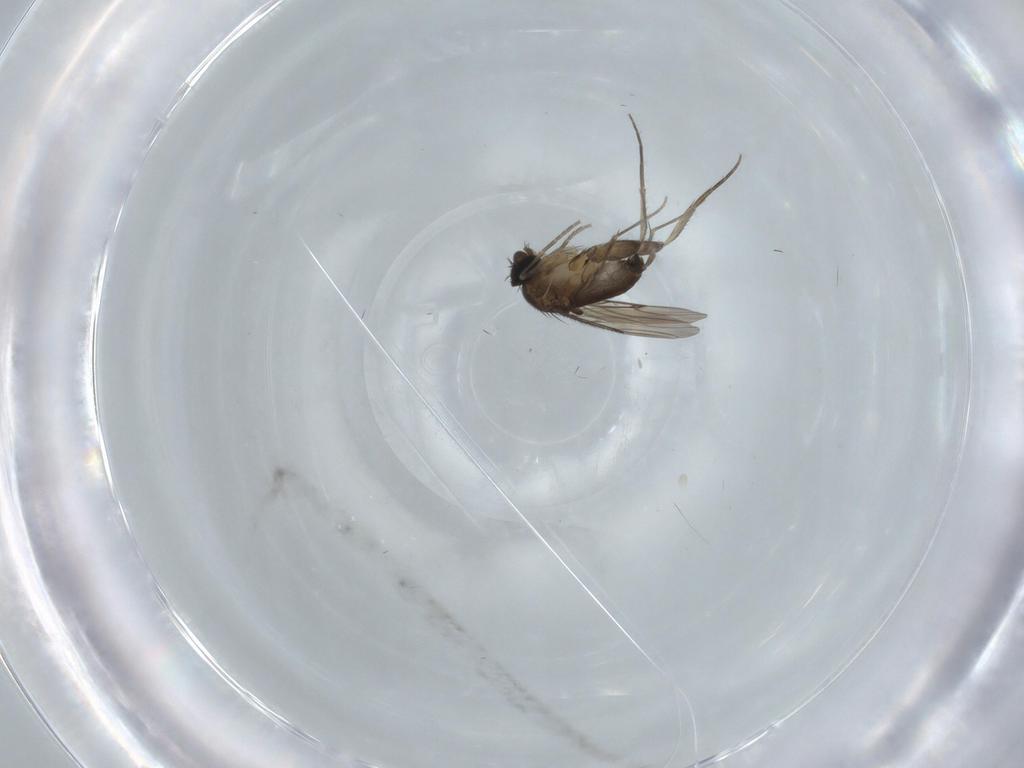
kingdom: Animalia
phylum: Arthropoda
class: Insecta
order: Diptera
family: Phoridae
